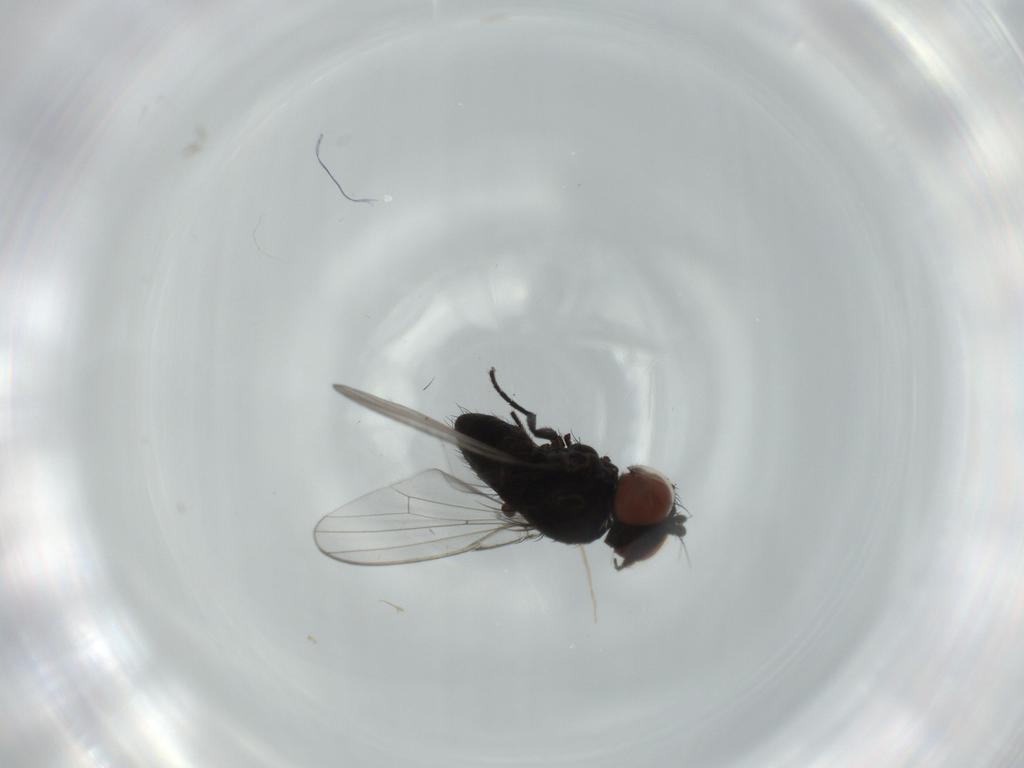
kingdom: Animalia
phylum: Arthropoda
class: Insecta
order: Diptera
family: Milichiidae
